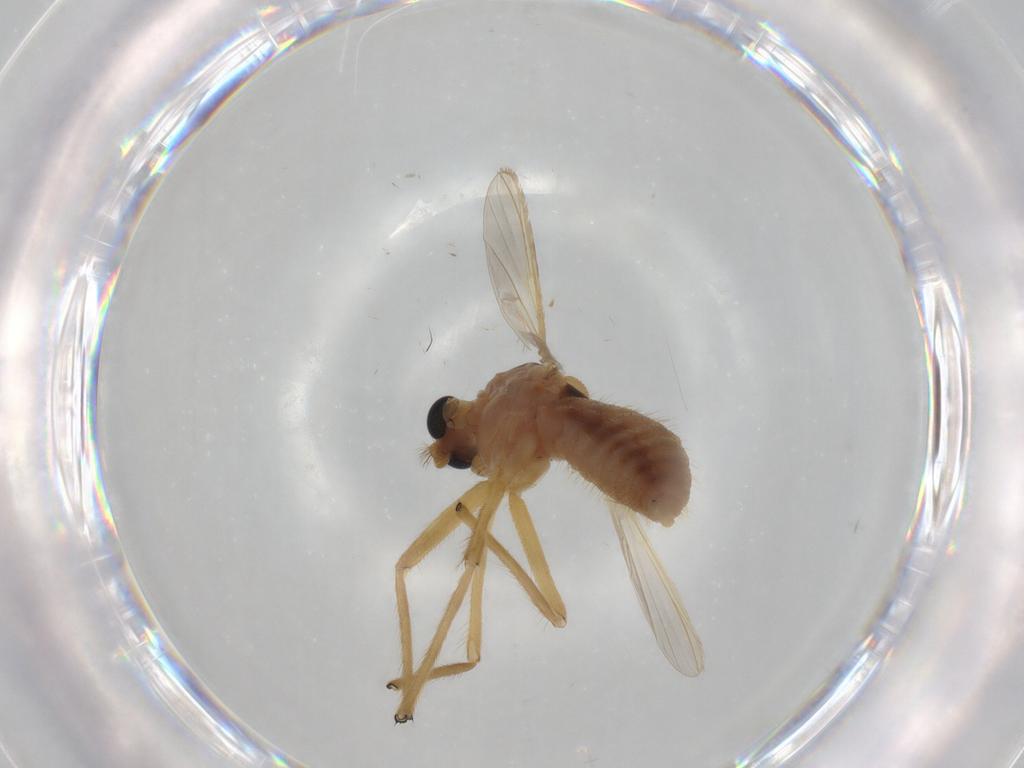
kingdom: Animalia
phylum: Arthropoda
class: Insecta
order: Diptera
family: Chironomidae
